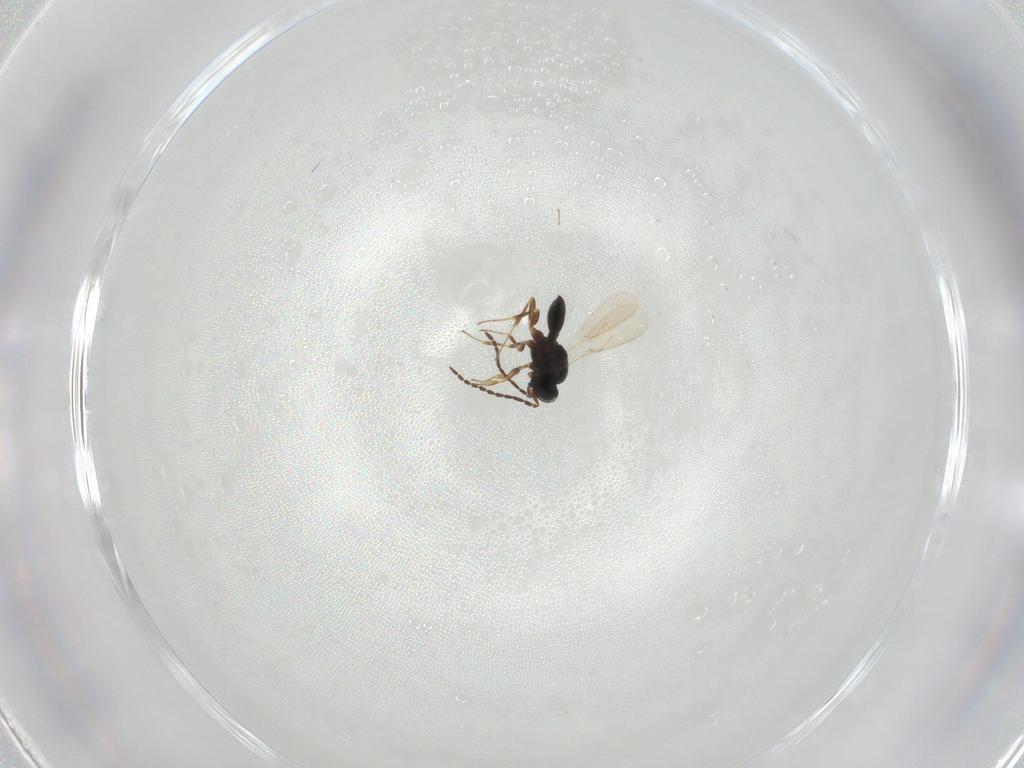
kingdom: Animalia
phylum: Arthropoda
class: Insecta
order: Hymenoptera
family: Scelionidae
